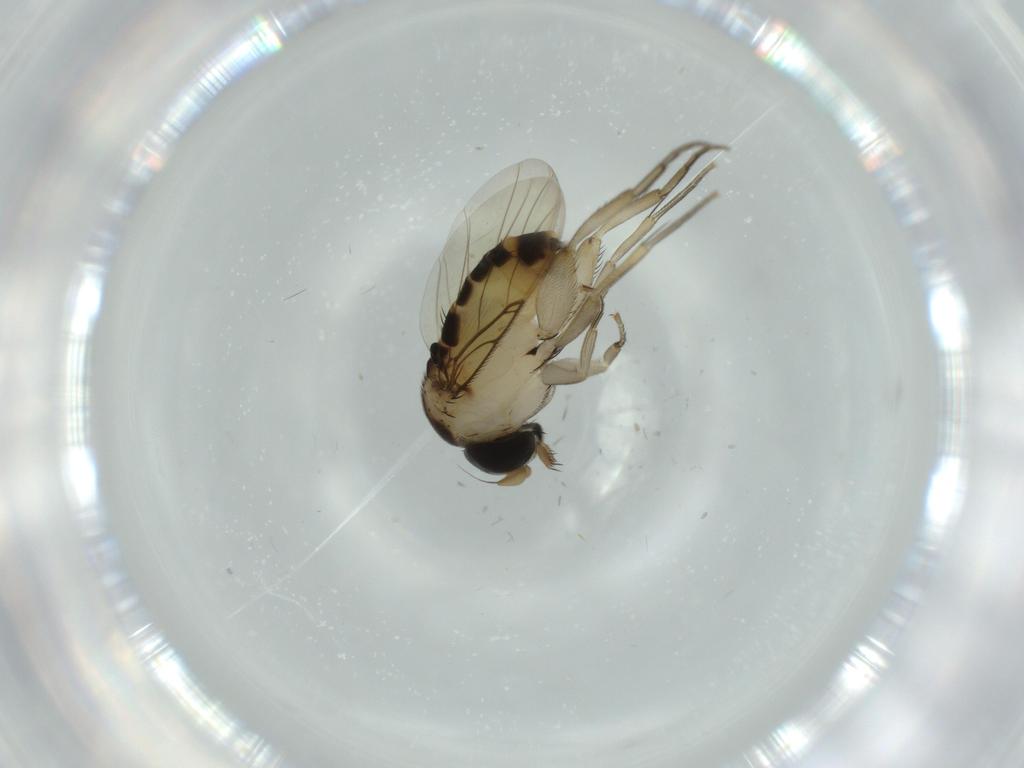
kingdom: Animalia
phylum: Arthropoda
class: Insecta
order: Diptera
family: Phoridae
